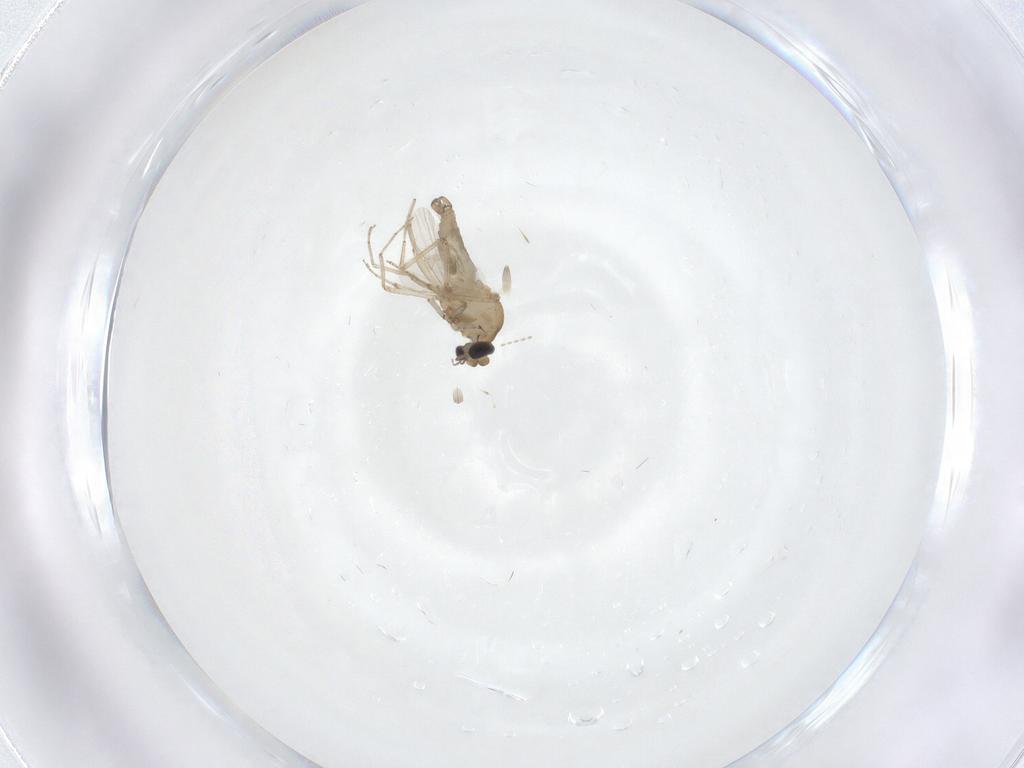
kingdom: Animalia
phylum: Arthropoda
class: Insecta
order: Diptera
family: Cecidomyiidae
